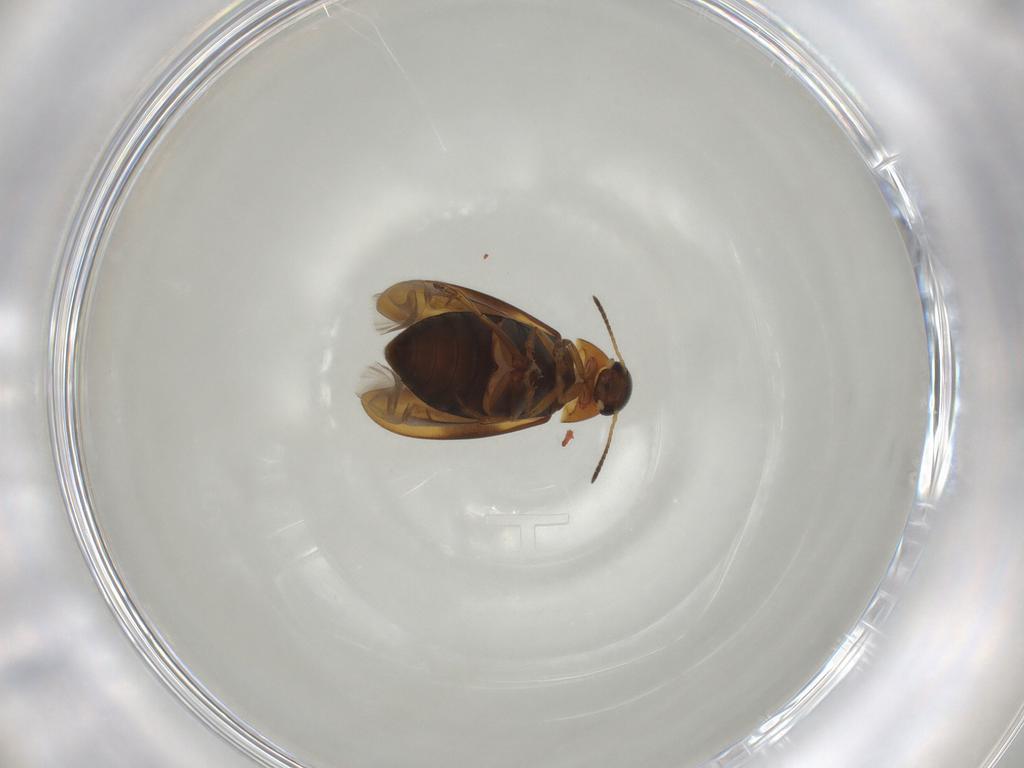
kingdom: Animalia
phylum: Arthropoda
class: Insecta
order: Coleoptera
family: Scraptiidae
